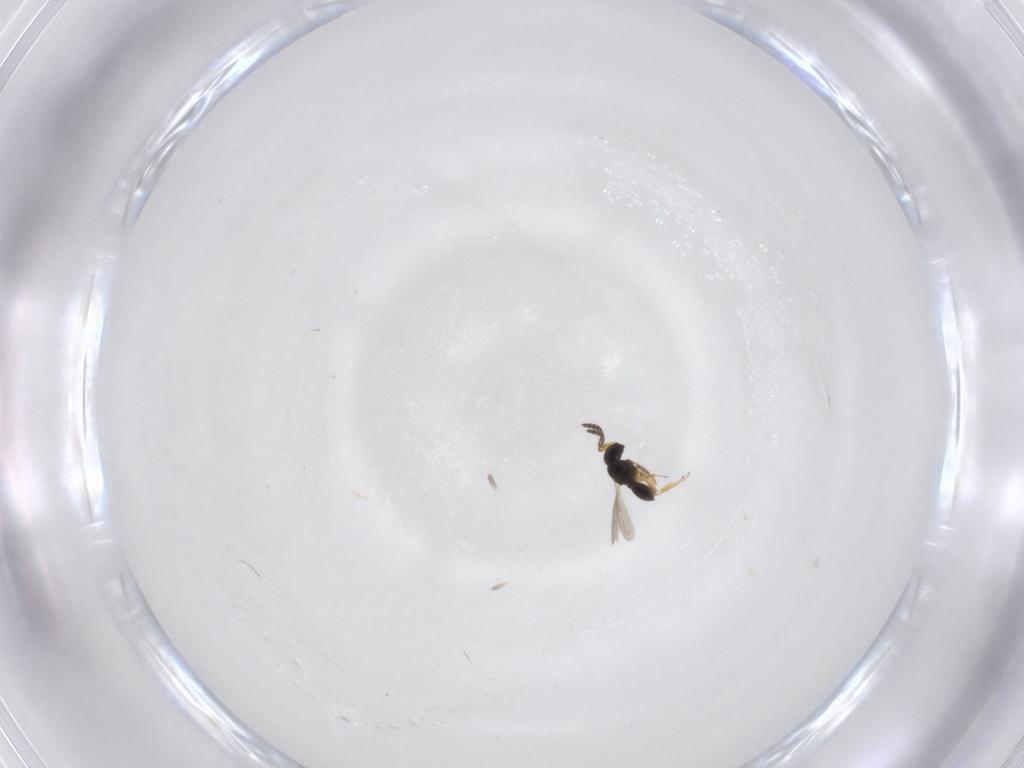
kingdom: Animalia
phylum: Arthropoda
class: Insecta
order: Hymenoptera
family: Scelionidae
